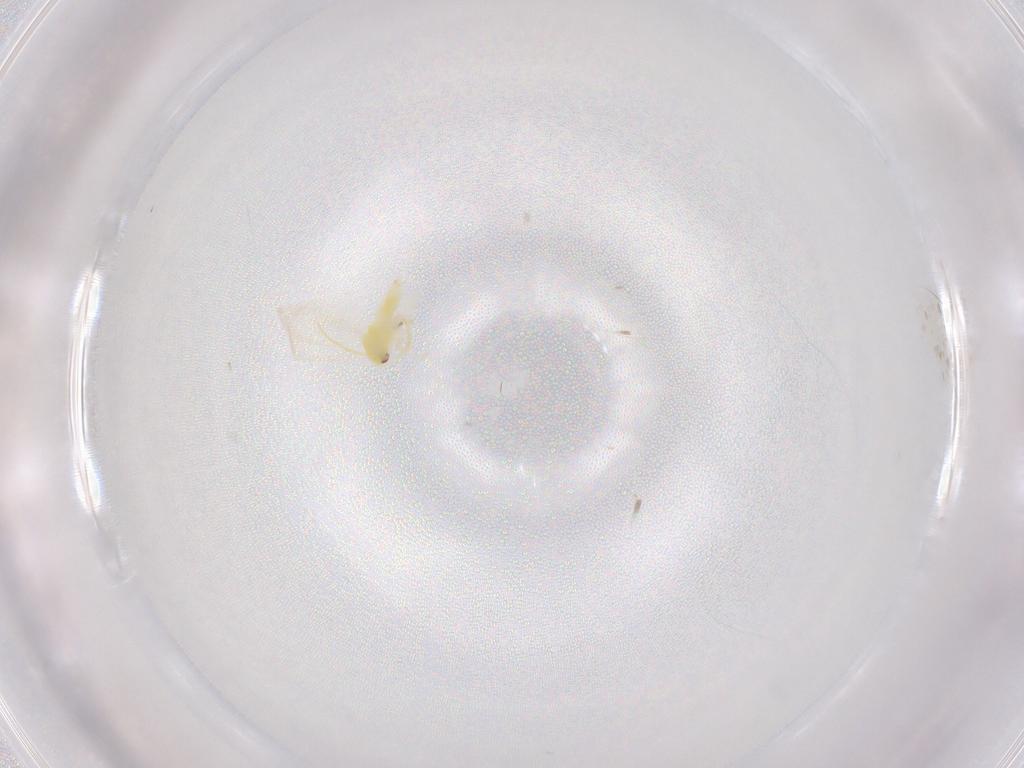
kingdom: Animalia
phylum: Arthropoda
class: Insecta
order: Hemiptera
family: Aleyrodidae
